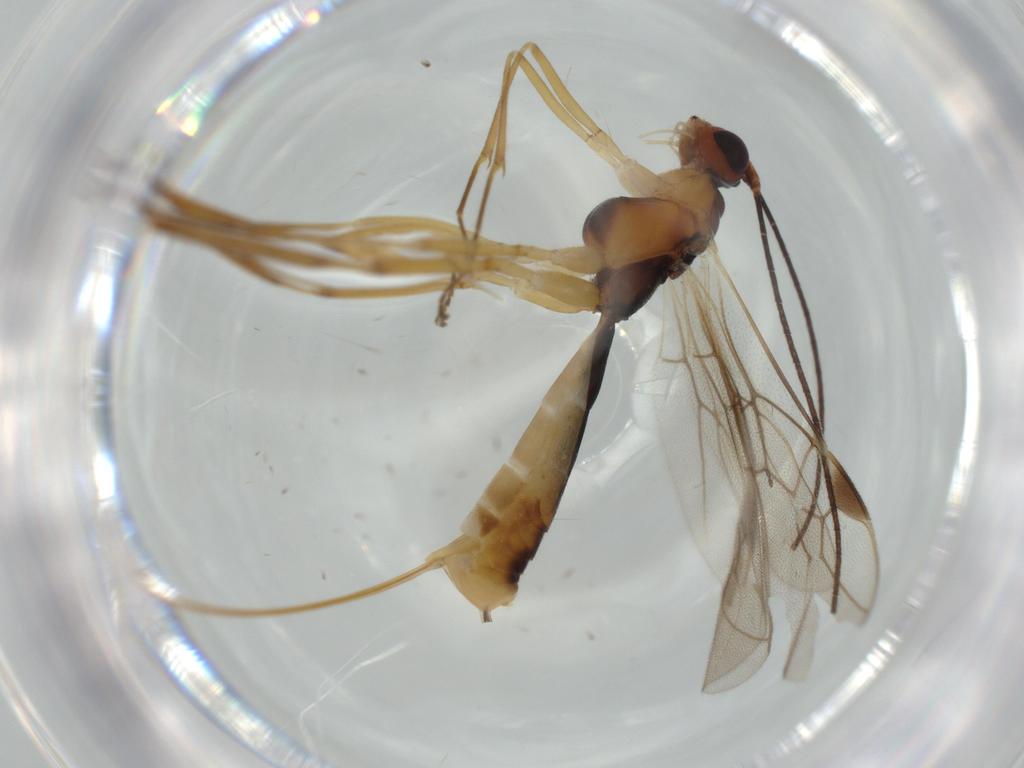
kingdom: Animalia
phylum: Arthropoda
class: Insecta
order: Hymenoptera
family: Braconidae
